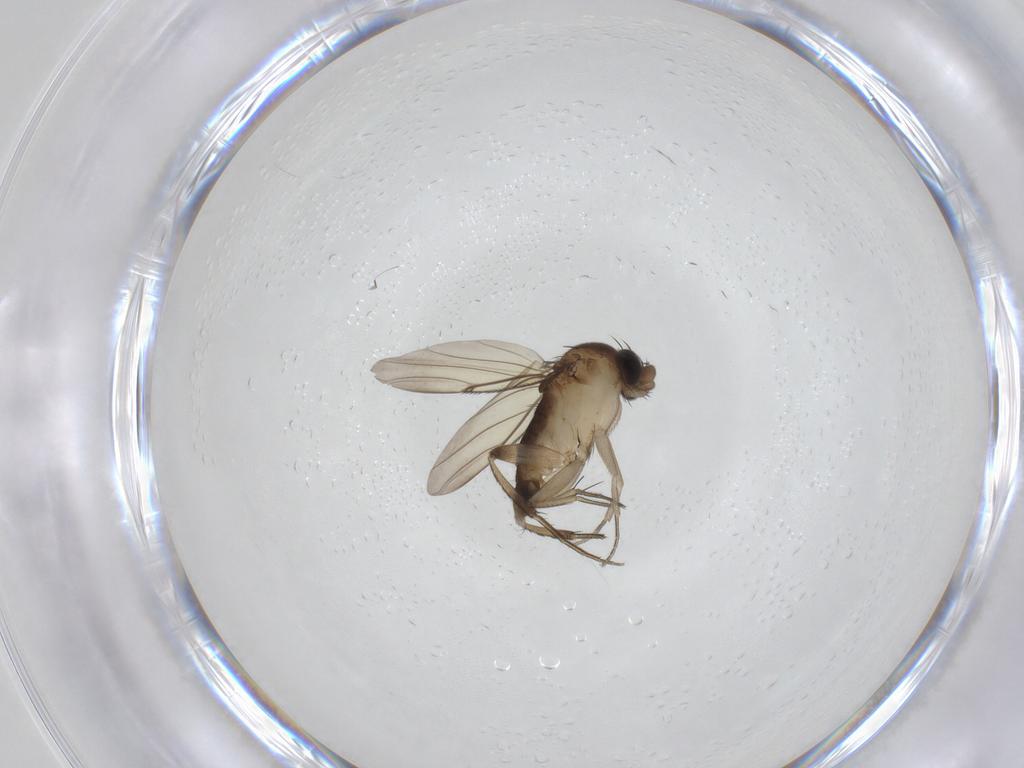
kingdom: Animalia
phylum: Arthropoda
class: Insecta
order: Diptera
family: Phoridae
